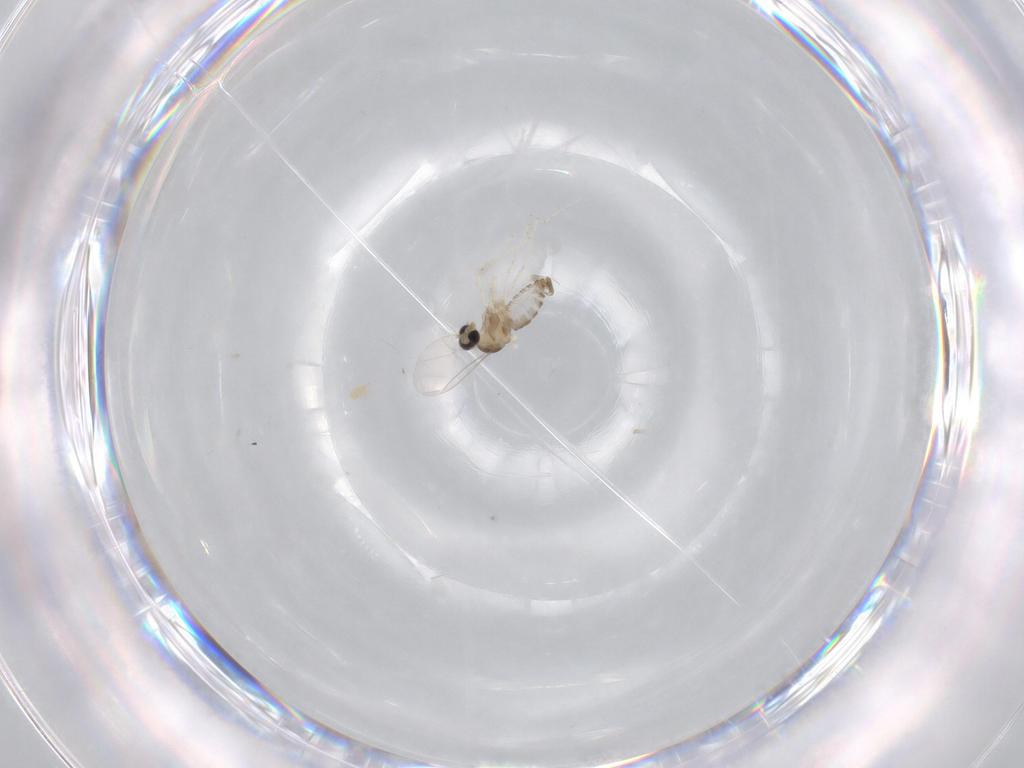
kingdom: Animalia
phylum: Arthropoda
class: Insecta
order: Diptera
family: Cecidomyiidae
